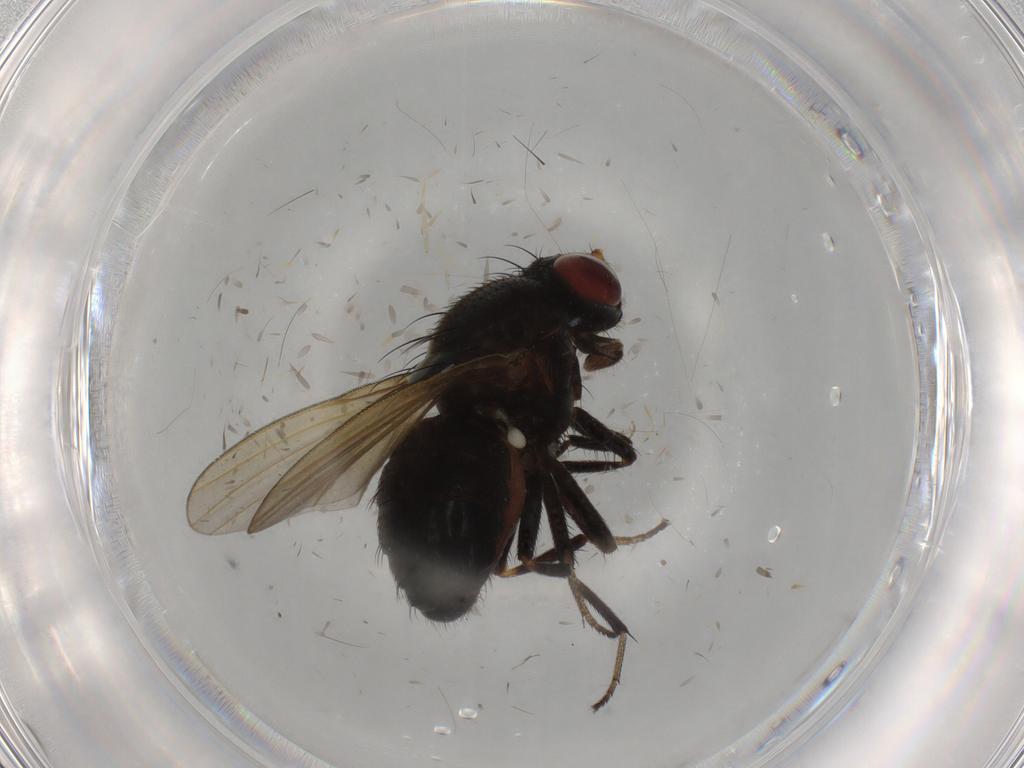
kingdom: Animalia
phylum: Arthropoda
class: Insecta
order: Diptera
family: Lauxaniidae
